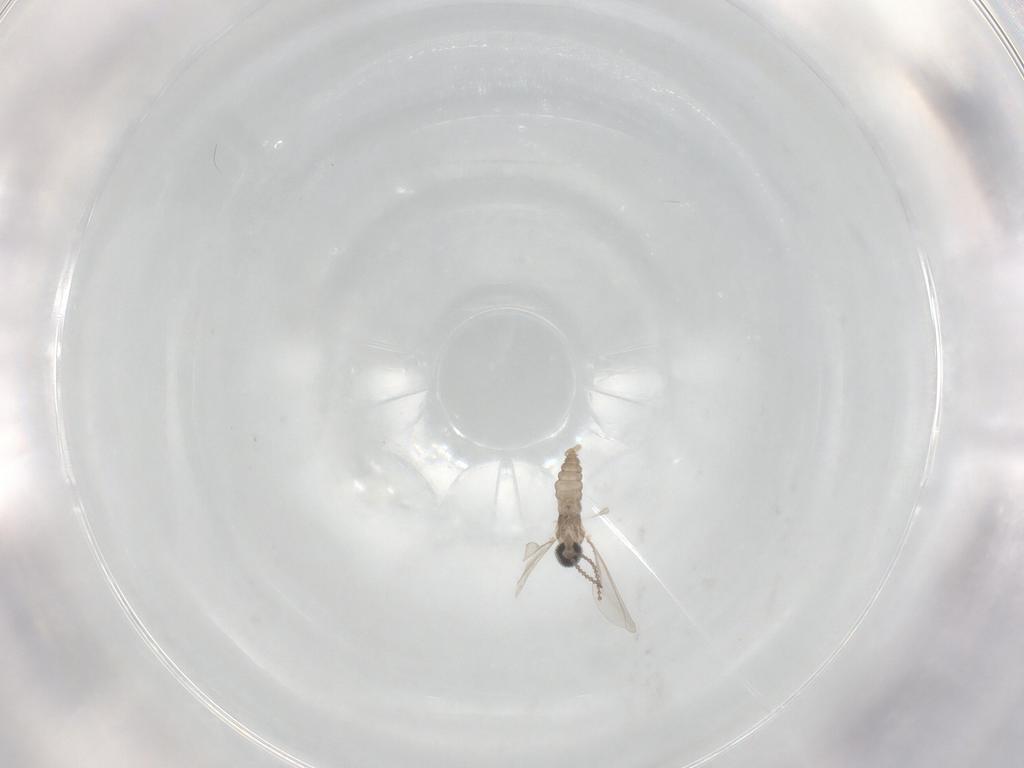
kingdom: Animalia
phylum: Arthropoda
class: Insecta
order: Diptera
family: Cecidomyiidae
